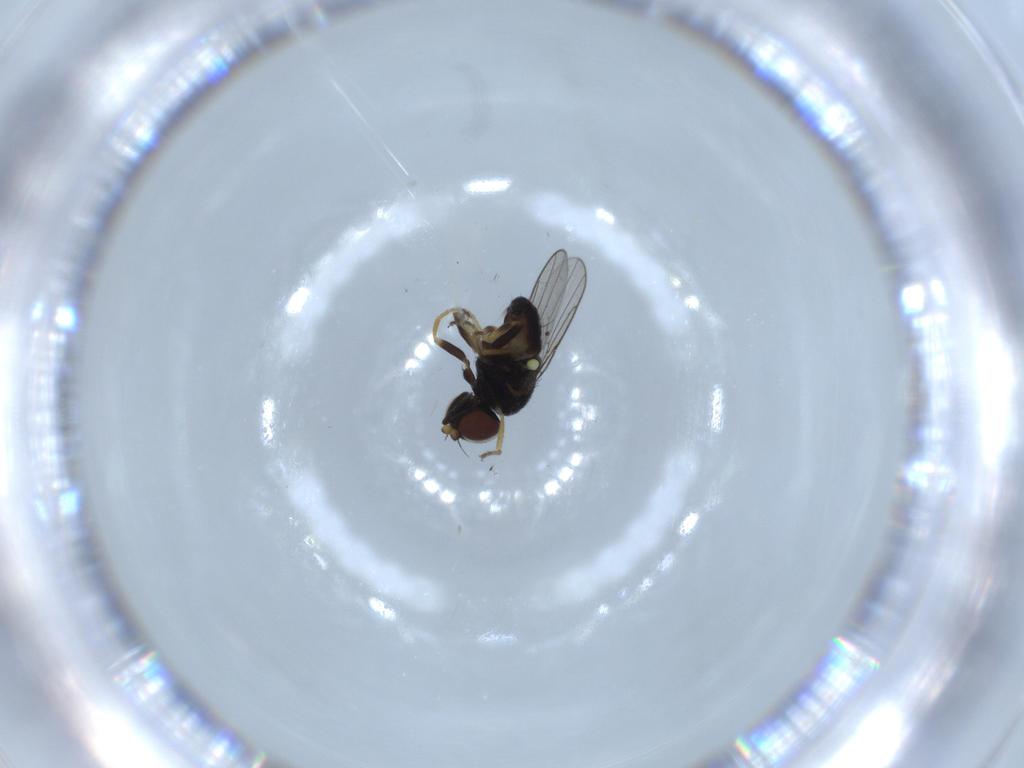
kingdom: Animalia
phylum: Arthropoda
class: Insecta
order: Diptera
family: Chloropidae
